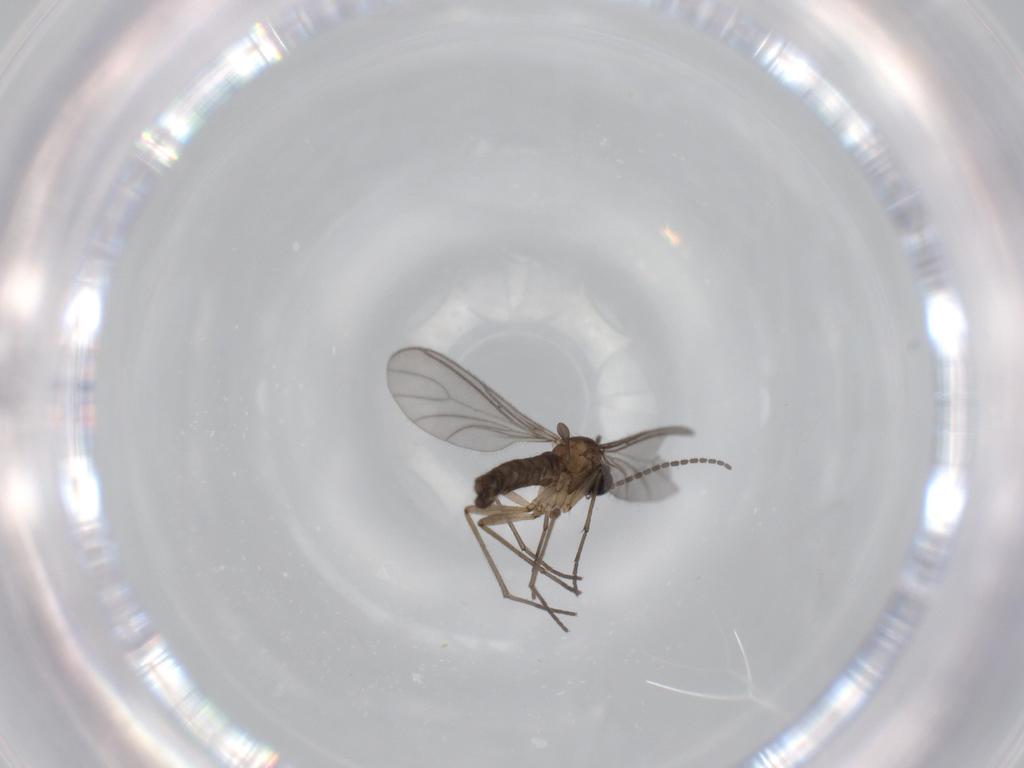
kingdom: Animalia
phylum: Arthropoda
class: Insecta
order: Diptera
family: Sciaridae
